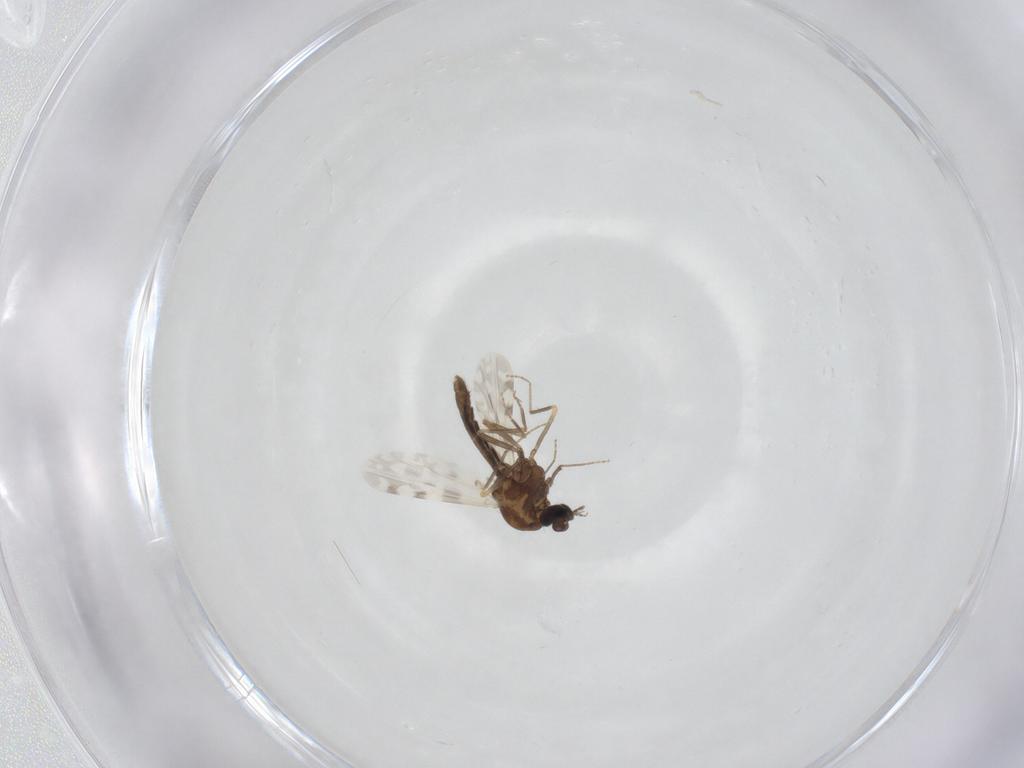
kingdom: Animalia
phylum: Arthropoda
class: Insecta
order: Diptera
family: Ceratopogonidae
